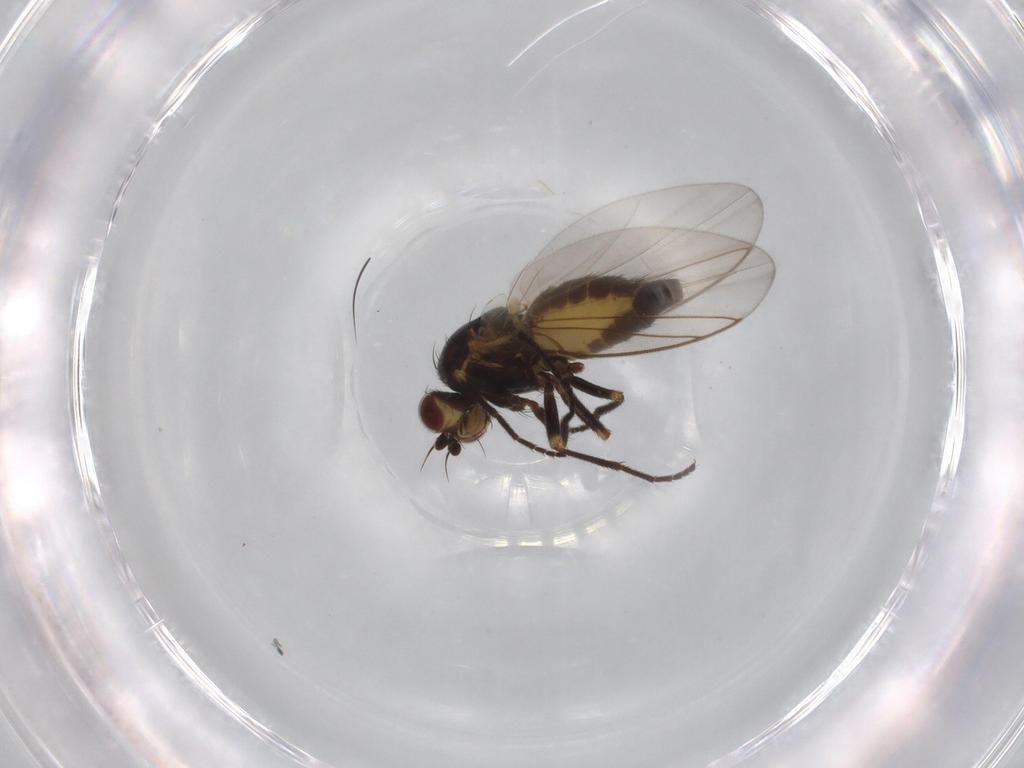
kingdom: Animalia
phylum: Arthropoda
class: Insecta
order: Diptera
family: Agromyzidae
